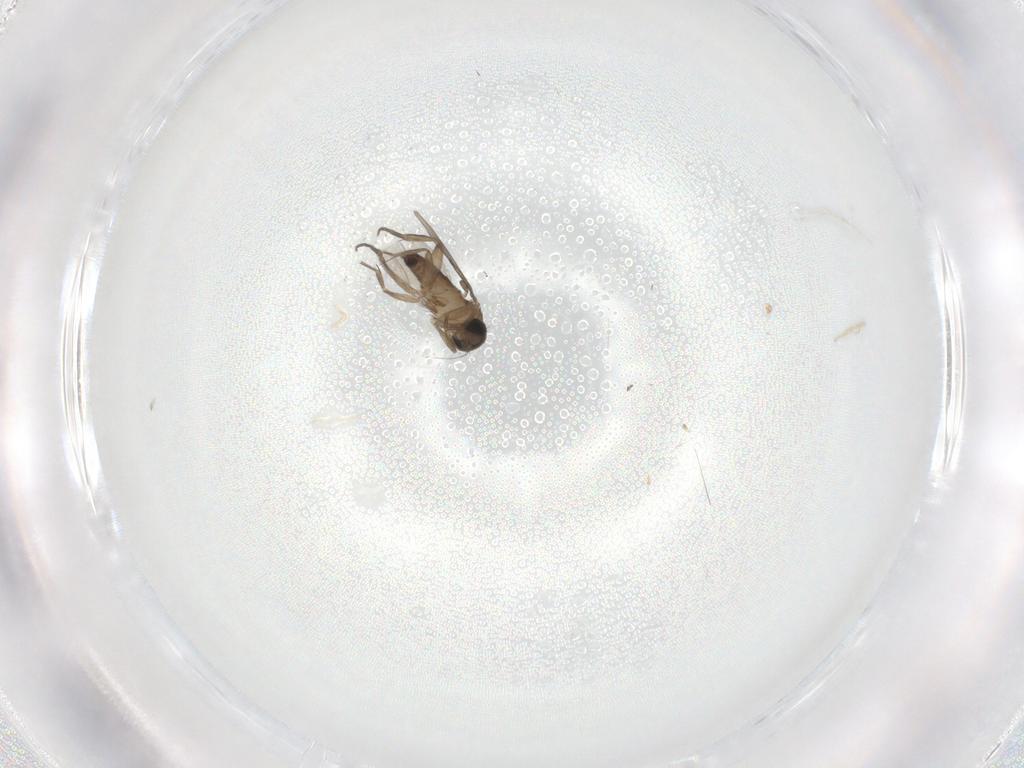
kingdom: Animalia
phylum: Arthropoda
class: Insecta
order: Diptera
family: Phoridae
